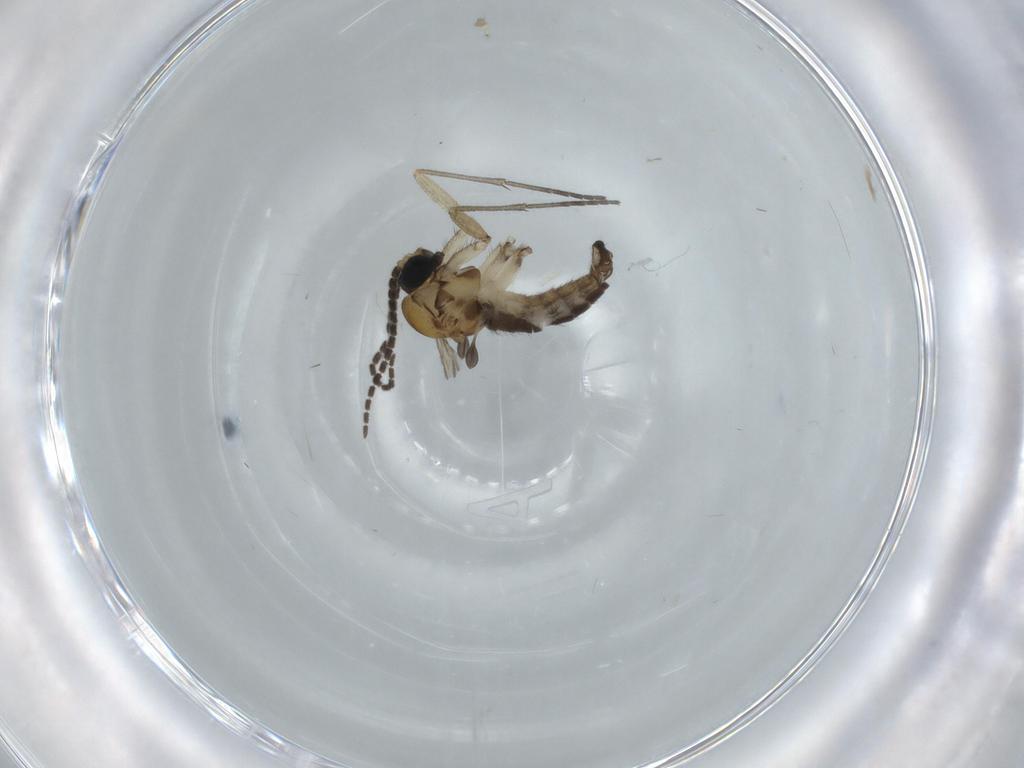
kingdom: Animalia
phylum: Arthropoda
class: Insecta
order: Diptera
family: Sciaridae
